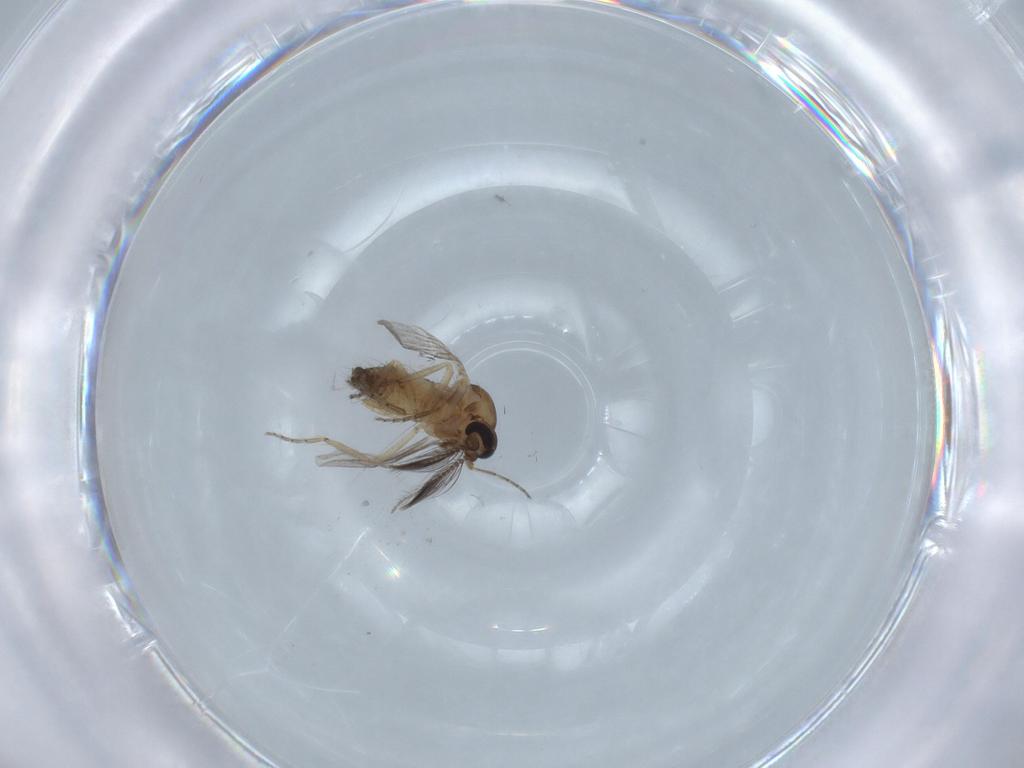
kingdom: Animalia
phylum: Arthropoda
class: Insecta
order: Diptera
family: Ceratopogonidae
